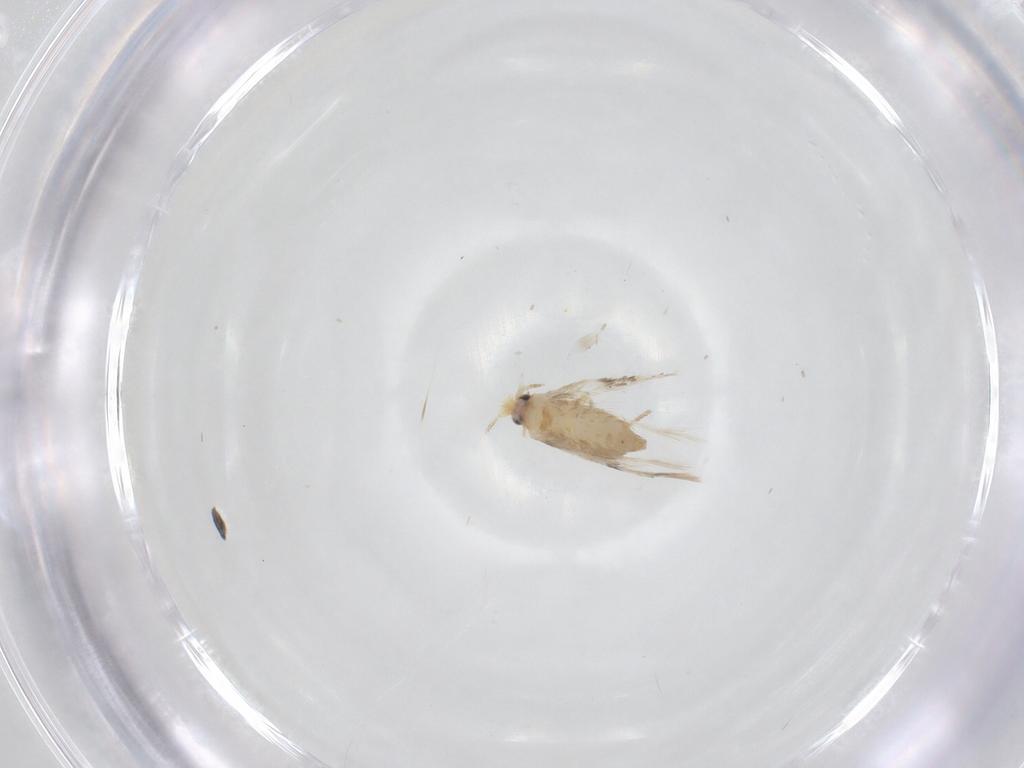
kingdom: Animalia
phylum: Arthropoda
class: Insecta
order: Lepidoptera
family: Nepticulidae
